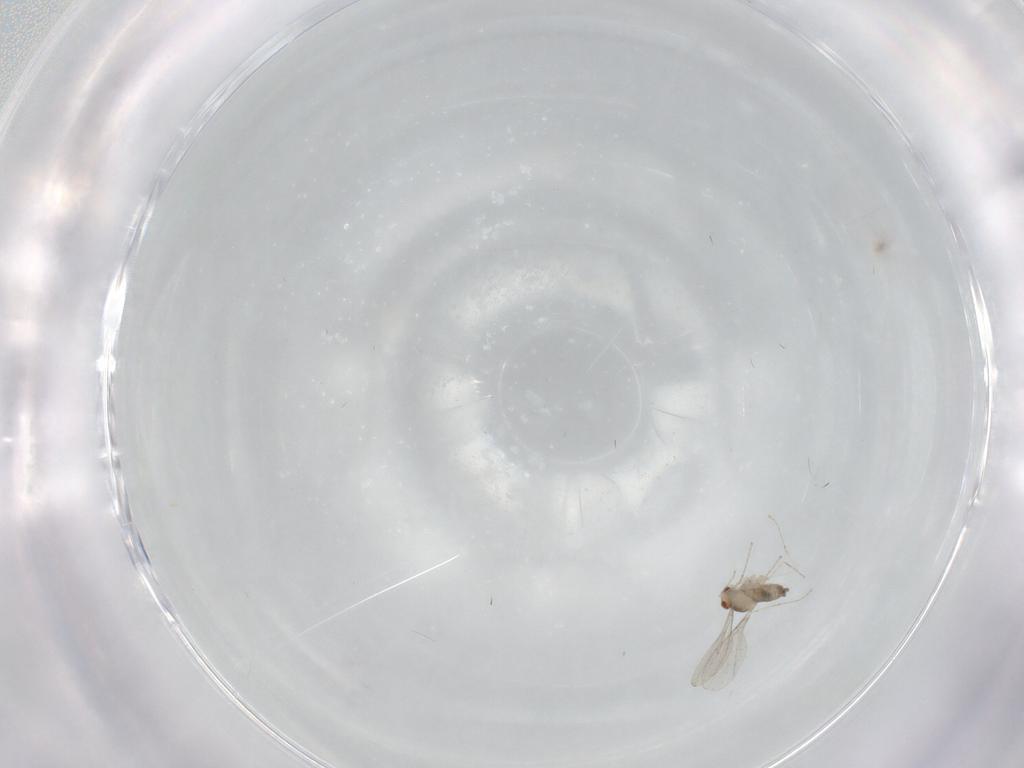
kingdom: Animalia
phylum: Arthropoda
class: Insecta
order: Diptera
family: Cecidomyiidae
